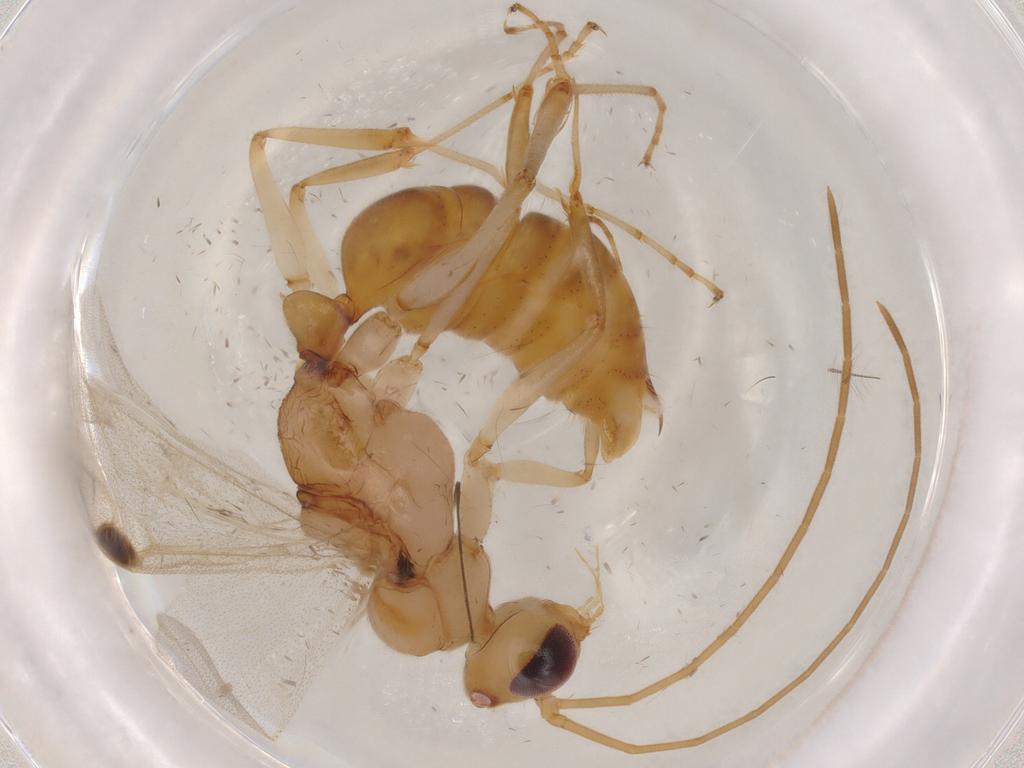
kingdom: Animalia
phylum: Arthropoda
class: Insecta
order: Hymenoptera
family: Formicidae
